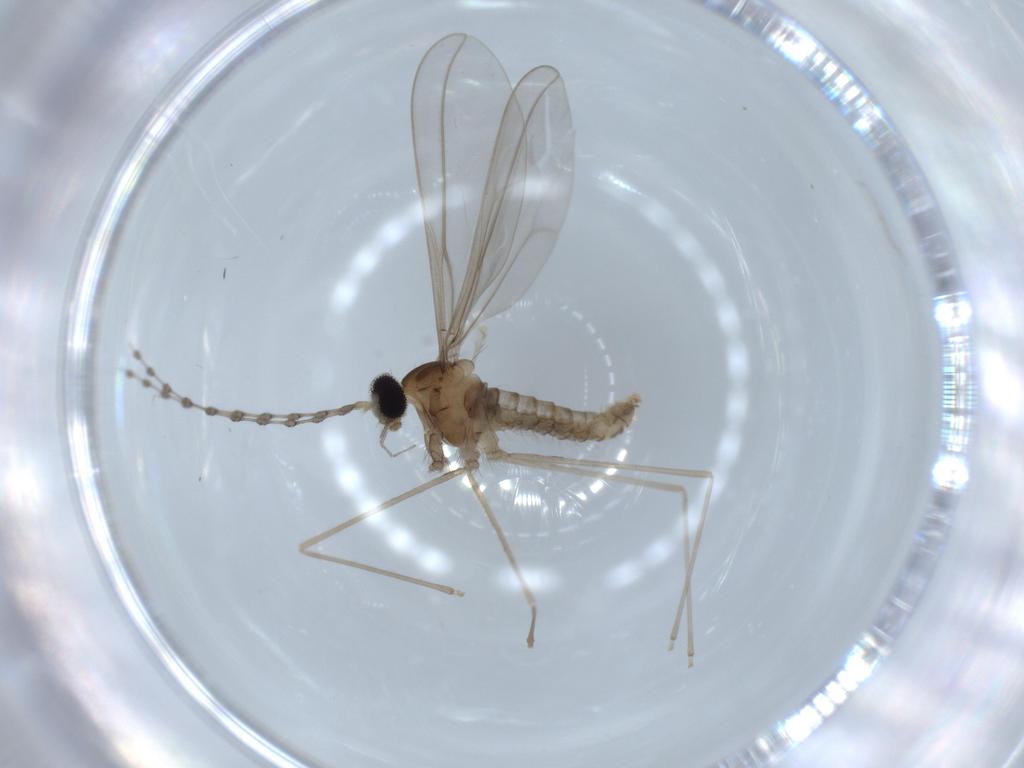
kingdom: Animalia
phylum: Arthropoda
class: Insecta
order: Diptera
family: Cecidomyiidae
